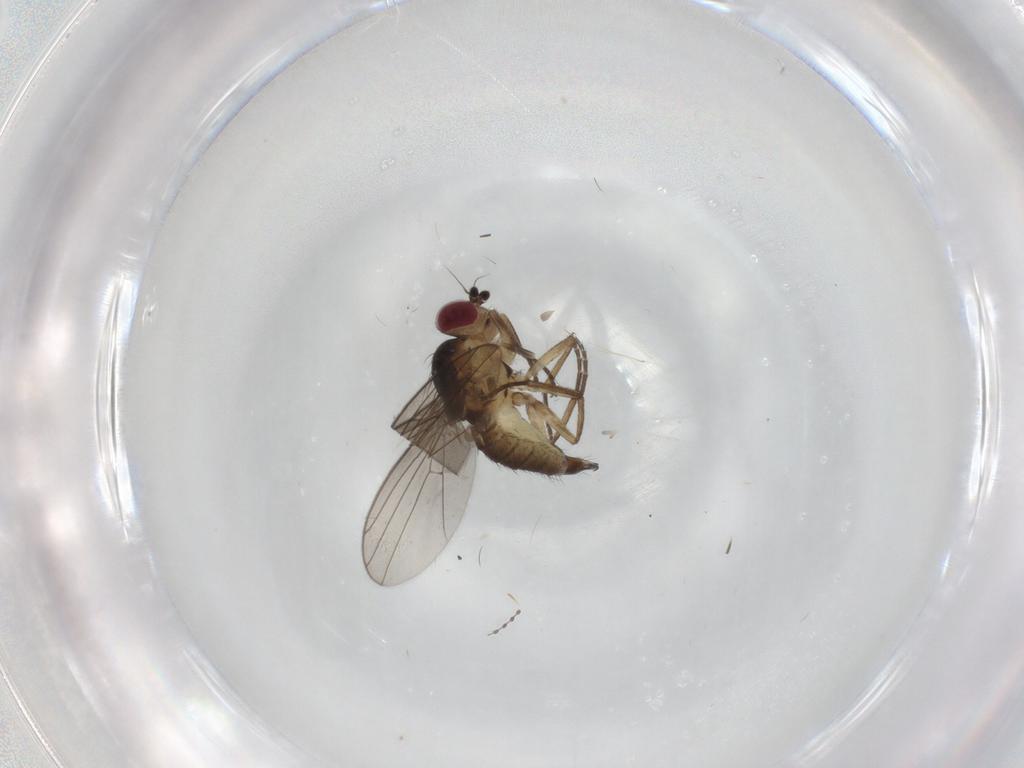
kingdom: Animalia
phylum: Arthropoda
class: Insecta
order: Diptera
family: Agromyzidae
